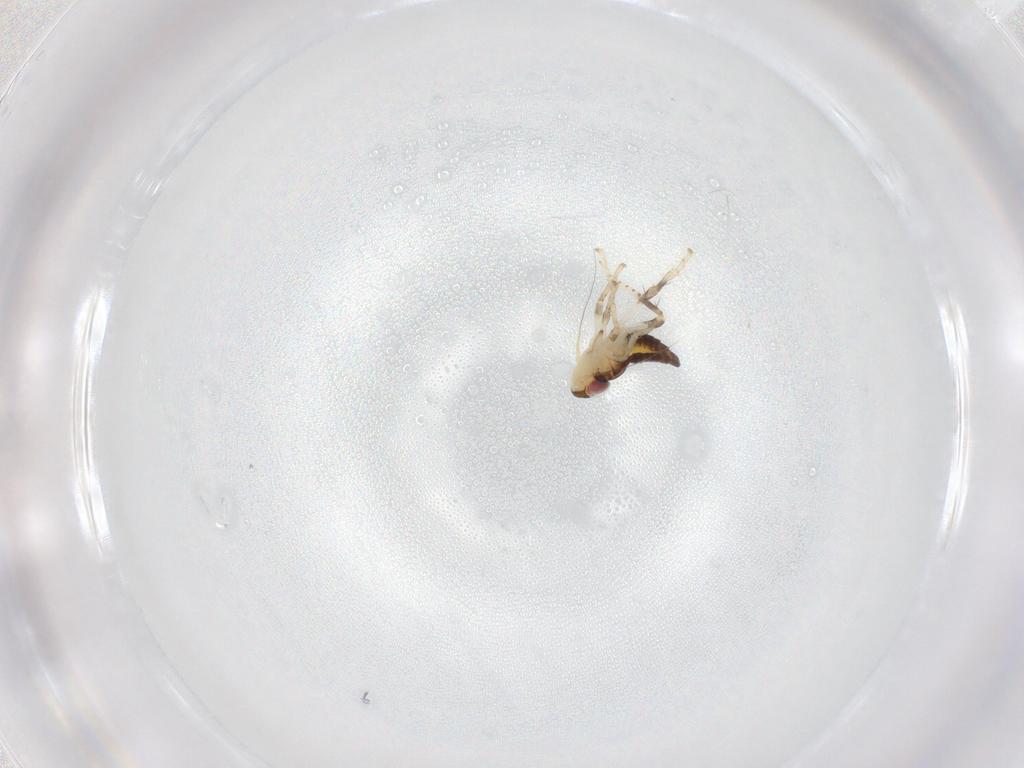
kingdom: Animalia
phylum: Arthropoda
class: Insecta
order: Hemiptera
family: Cicadellidae
